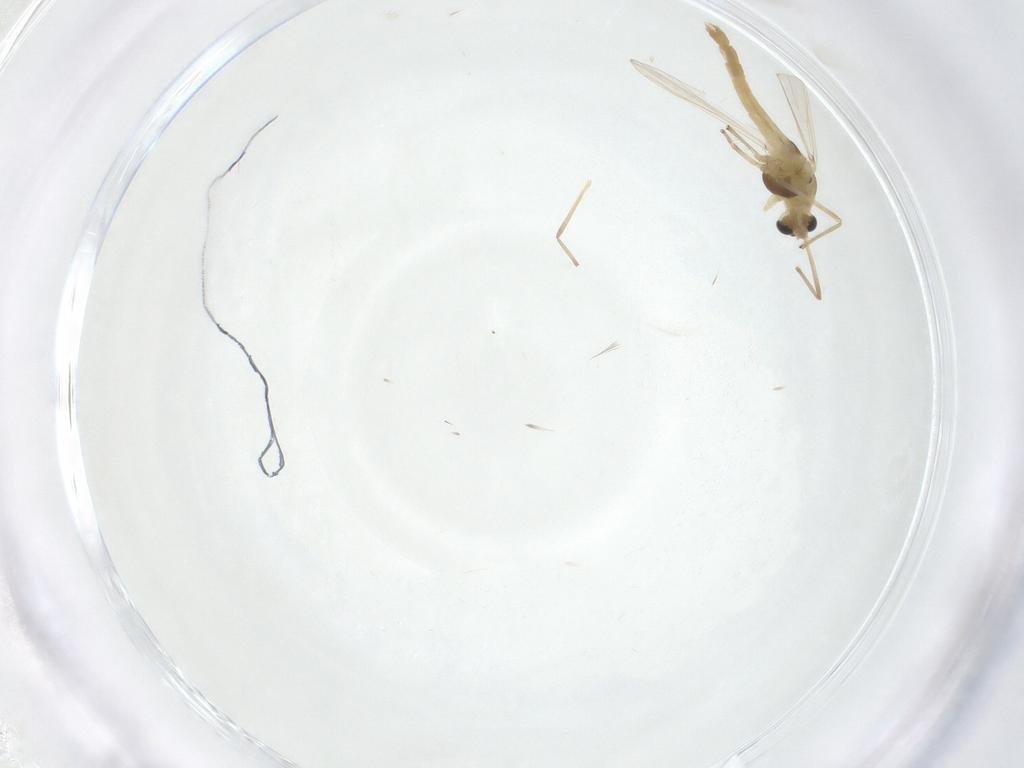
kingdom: Animalia
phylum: Arthropoda
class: Insecta
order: Diptera
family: Chironomidae
